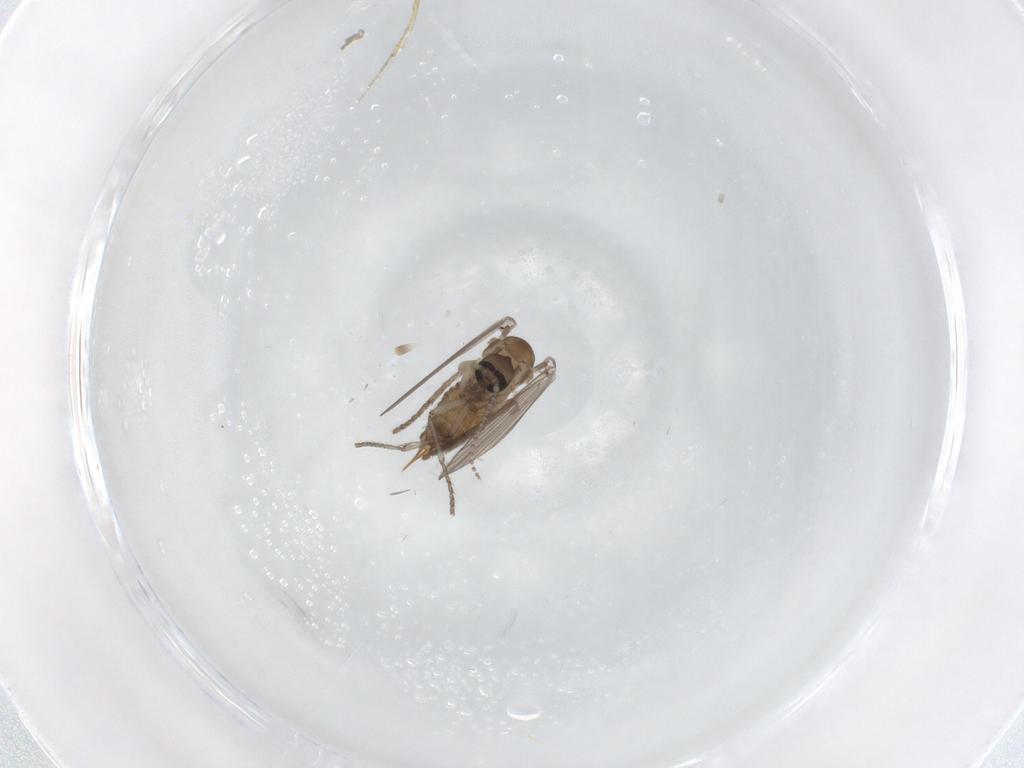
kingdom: Animalia
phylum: Arthropoda
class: Insecta
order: Diptera
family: Psychodidae
